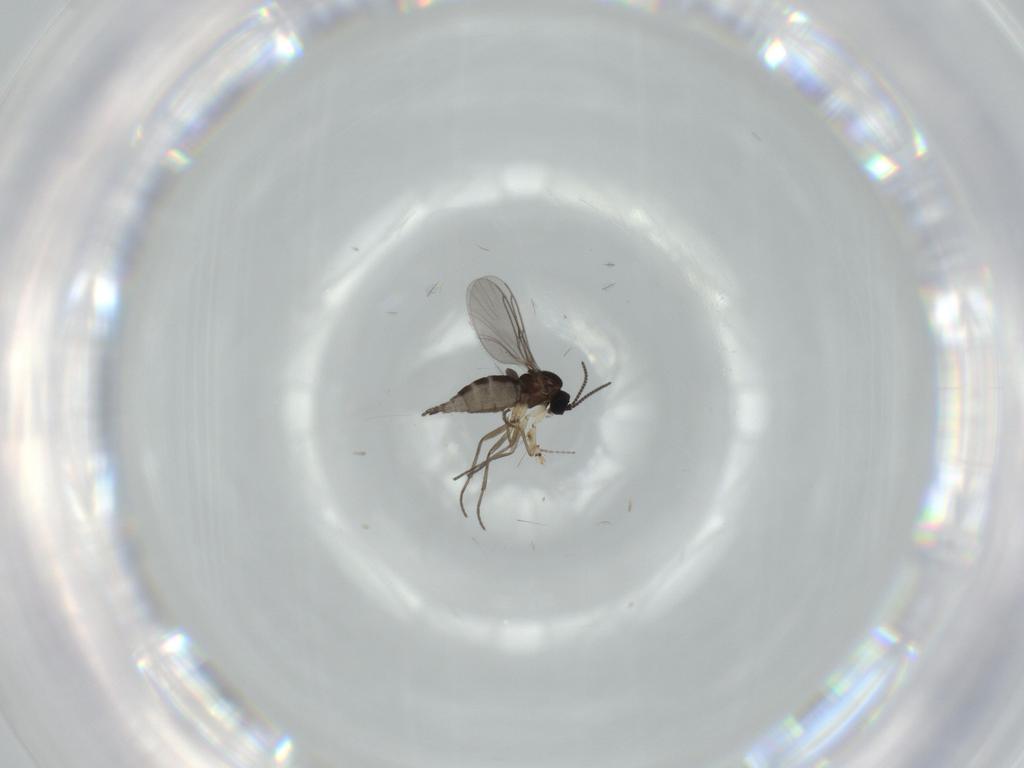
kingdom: Animalia
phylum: Arthropoda
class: Insecta
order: Diptera
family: Sciaridae
